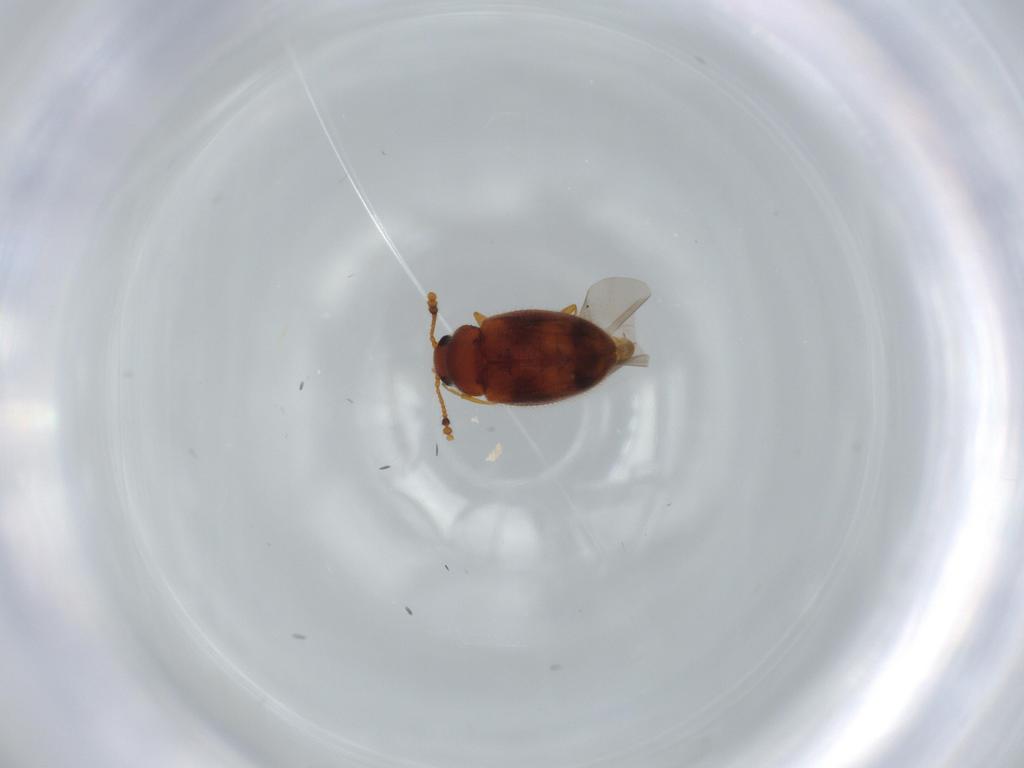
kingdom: Animalia
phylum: Arthropoda
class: Insecta
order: Coleoptera
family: Erotylidae
